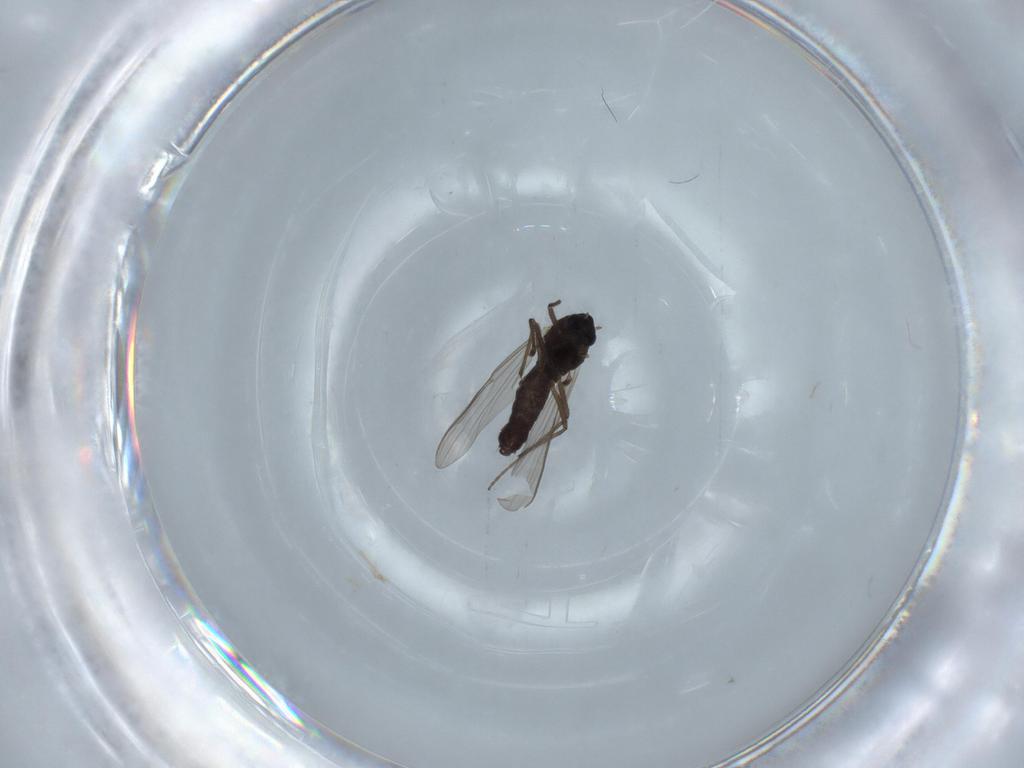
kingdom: Animalia
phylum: Arthropoda
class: Insecta
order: Diptera
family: Chironomidae
